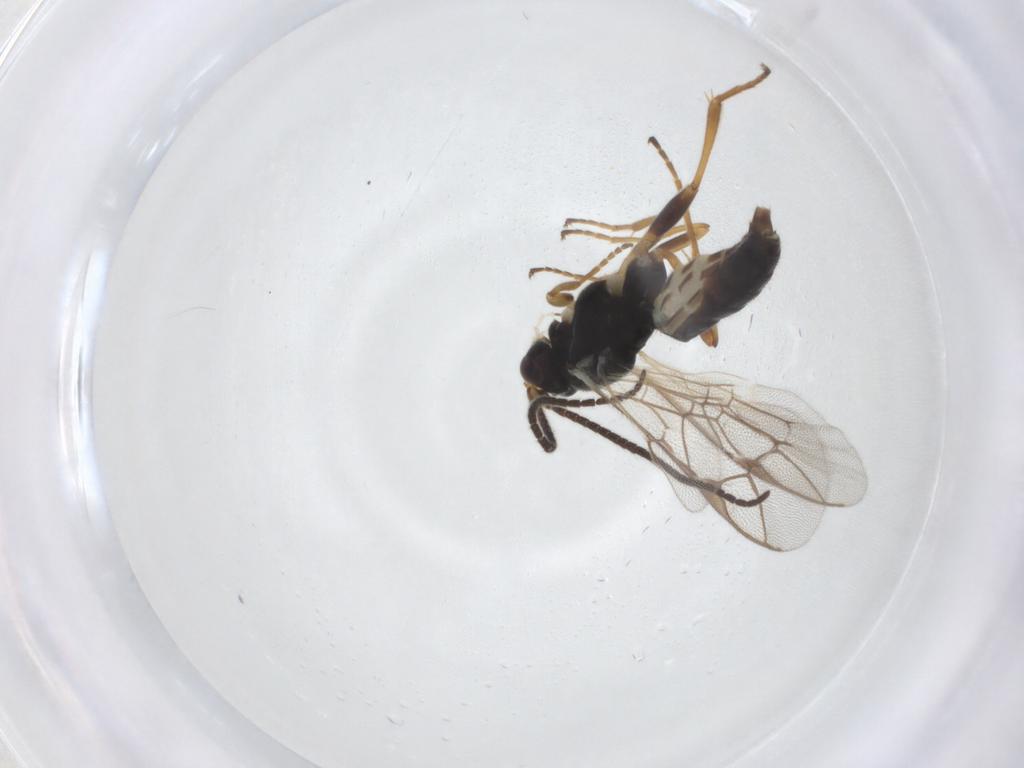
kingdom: Animalia
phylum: Arthropoda
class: Insecta
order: Hymenoptera
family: Ichneumonidae
